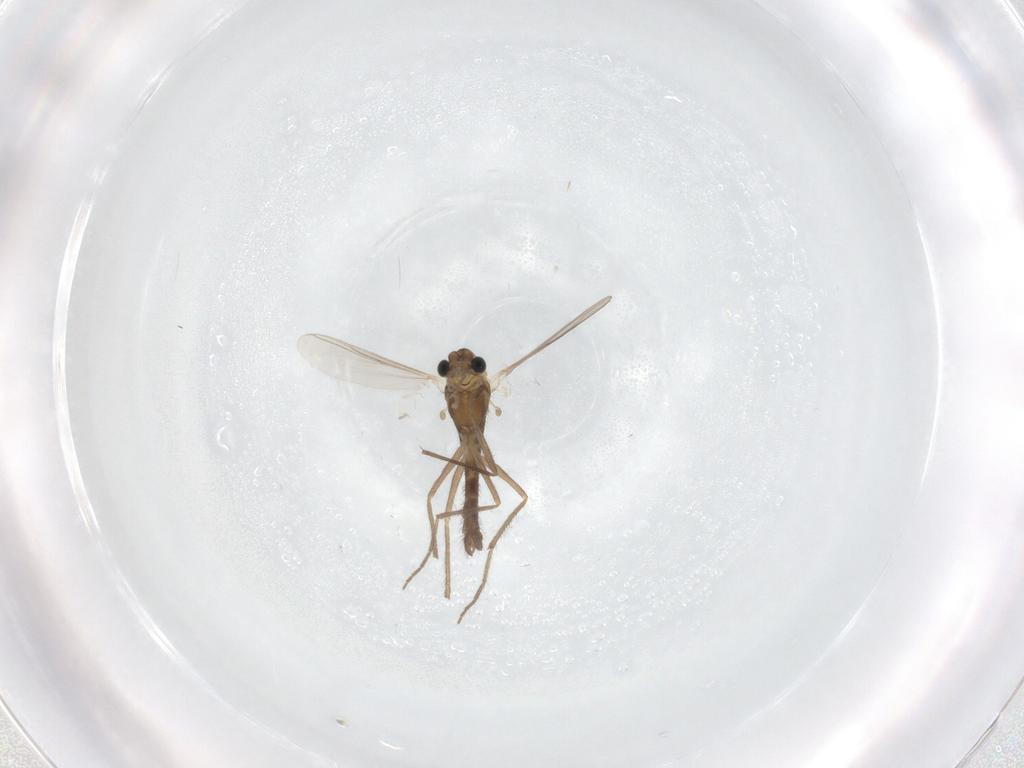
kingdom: Animalia
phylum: Arthropoda
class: Insecta
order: Diptera
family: Chironomidae
